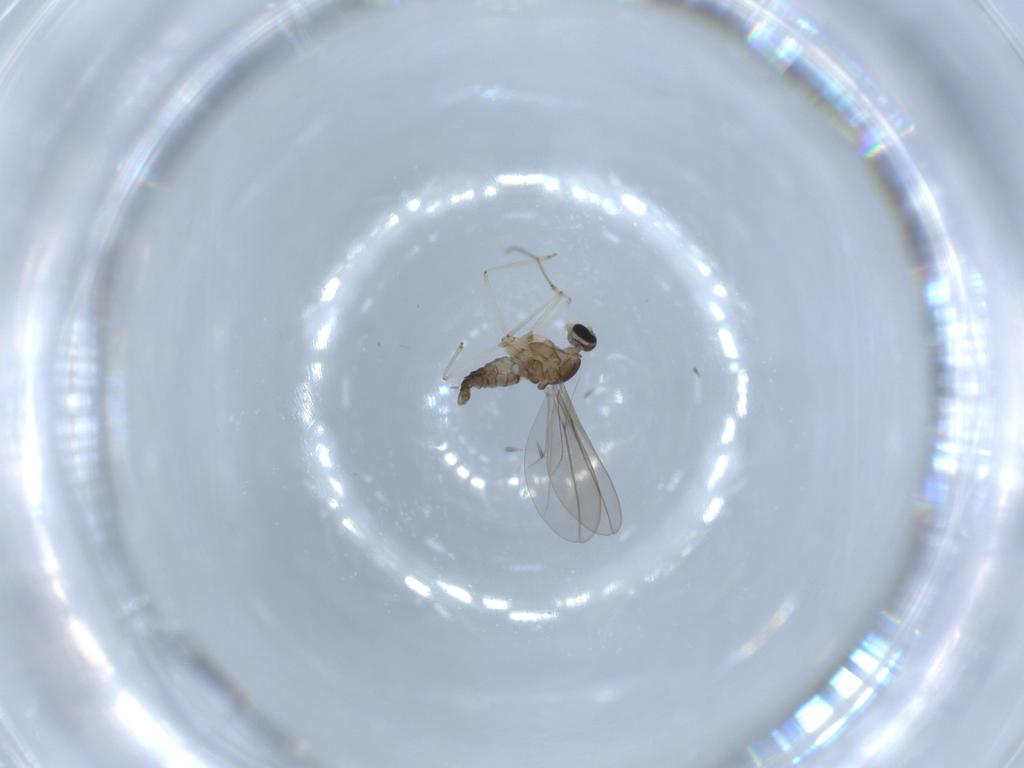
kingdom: Animalia
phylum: Arthropoda
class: Insecta
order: Diptera
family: Cecidomyiidae
